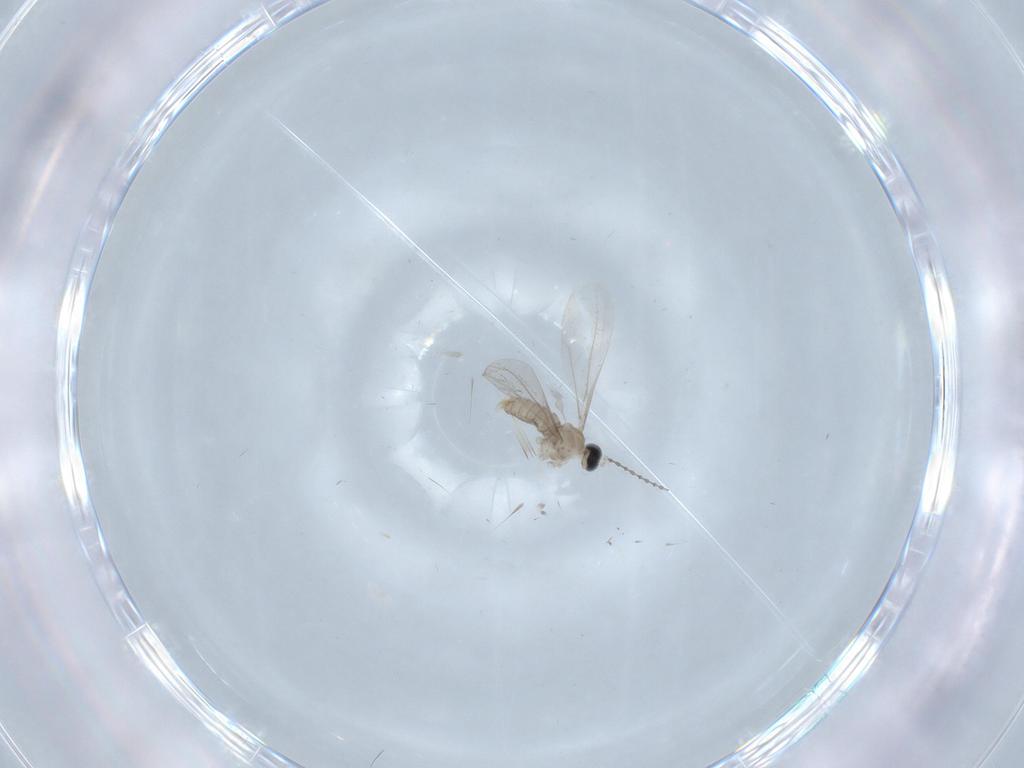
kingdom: Animalia
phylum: Arthropoda
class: Insecta
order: Diptera
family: Cecidomyiidae
